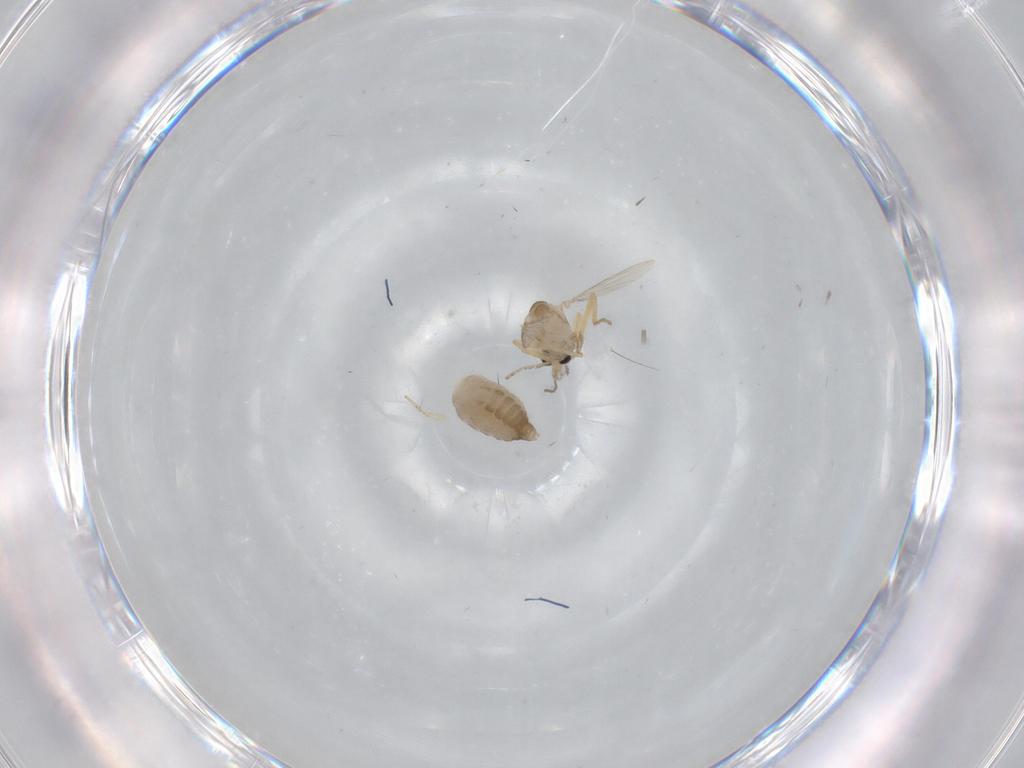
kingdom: Animalia
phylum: Arthropoda
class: Insecta
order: Diptera
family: Ceratopogonidae
